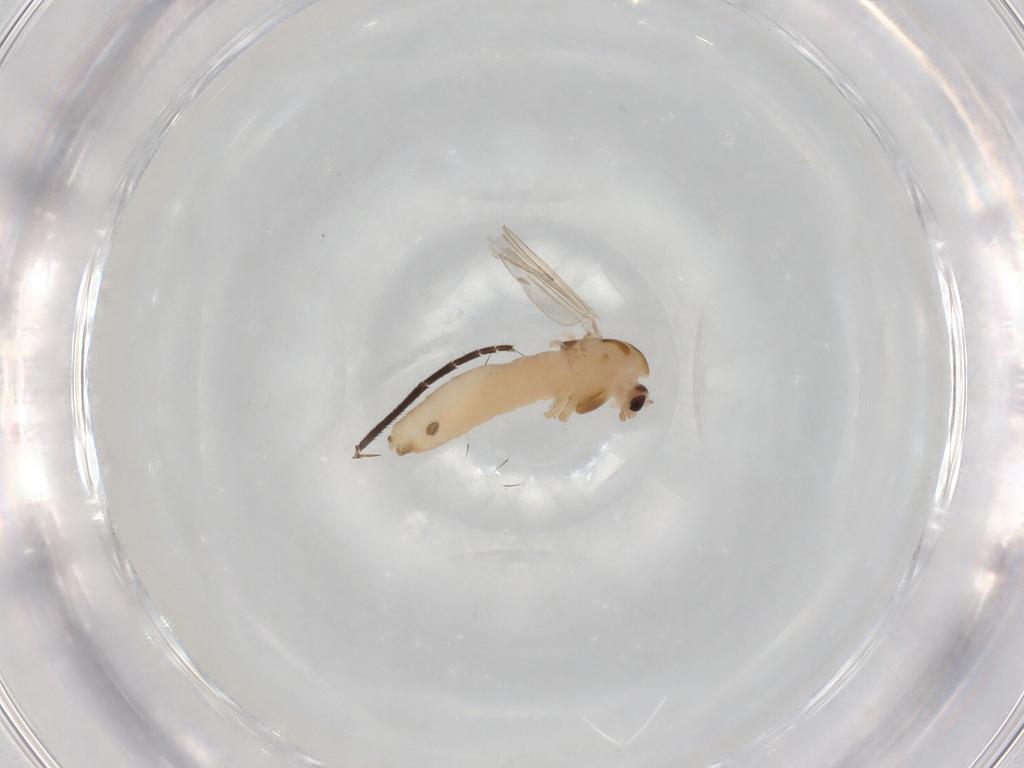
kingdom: Animalia
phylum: Arthropoda
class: Insecta
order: Diptera
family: Chironomidae
